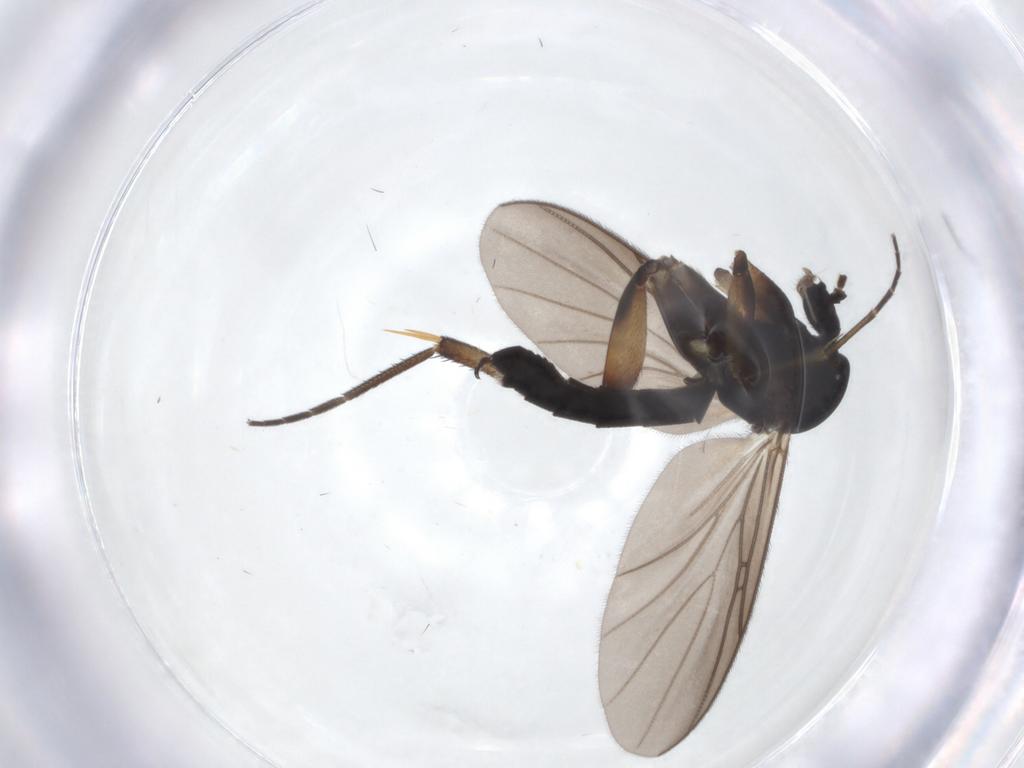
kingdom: Animalia
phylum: Arthropoda
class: Insecta
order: Diptera
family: Mycetophilidae
